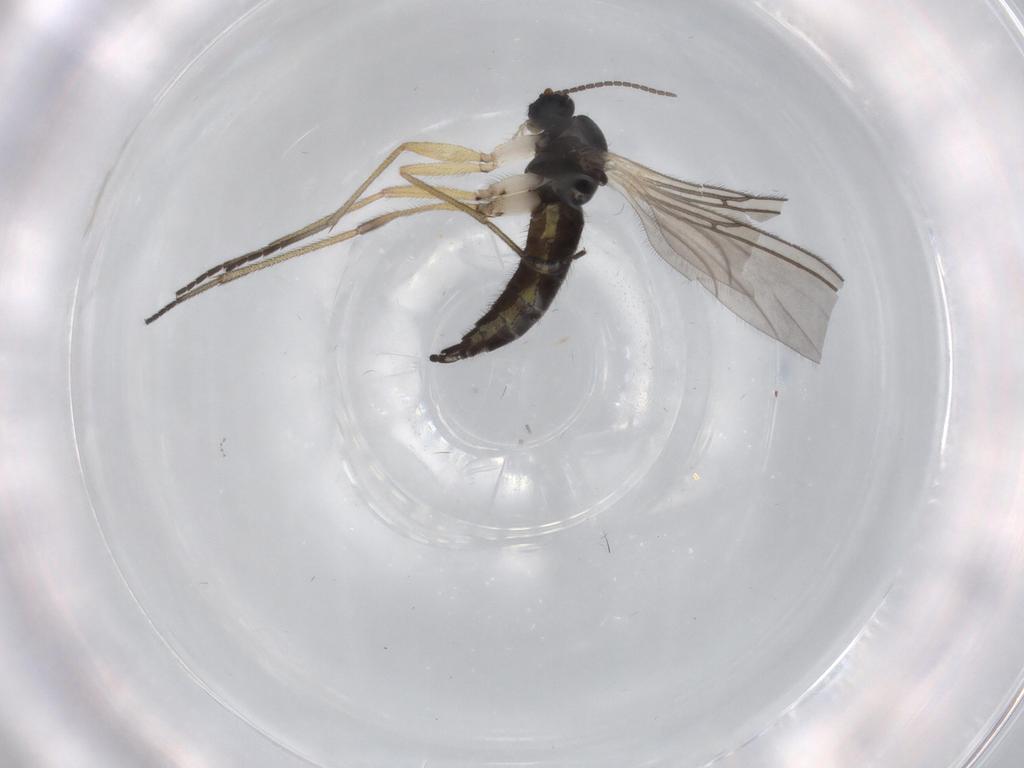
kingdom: Animalia
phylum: Arthropoda
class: Insecta
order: Diptera
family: Sciaridae
